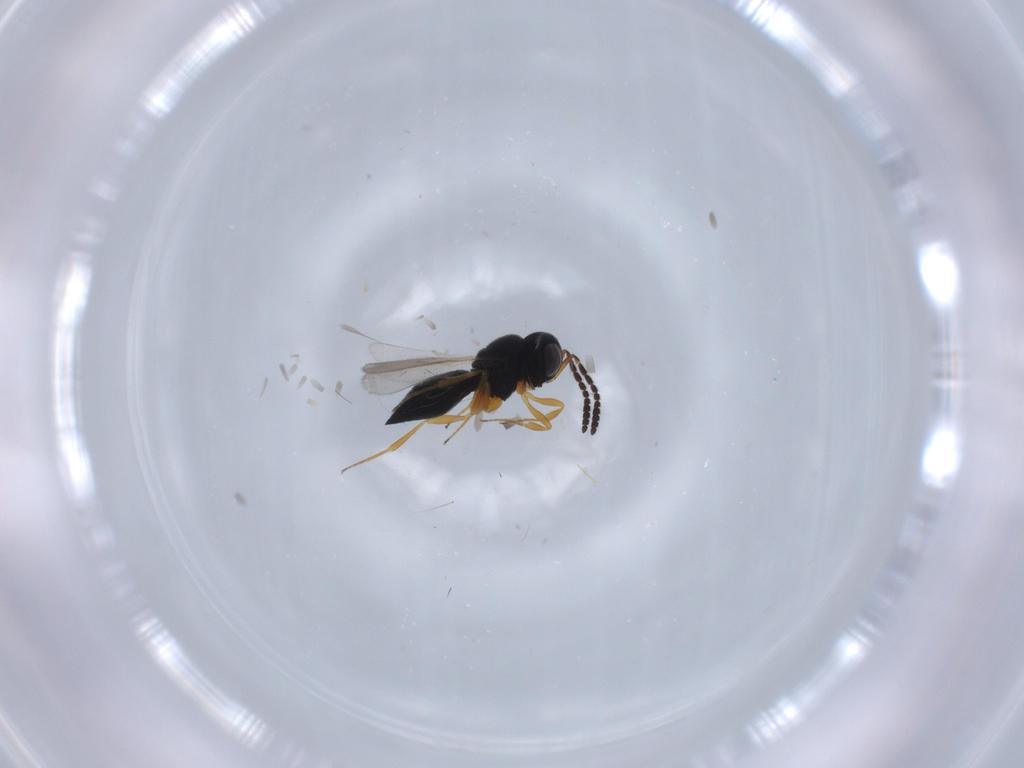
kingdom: Animalia
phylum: Arthropoda
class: Insecta
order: Hymenoptera
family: Scelionidae
